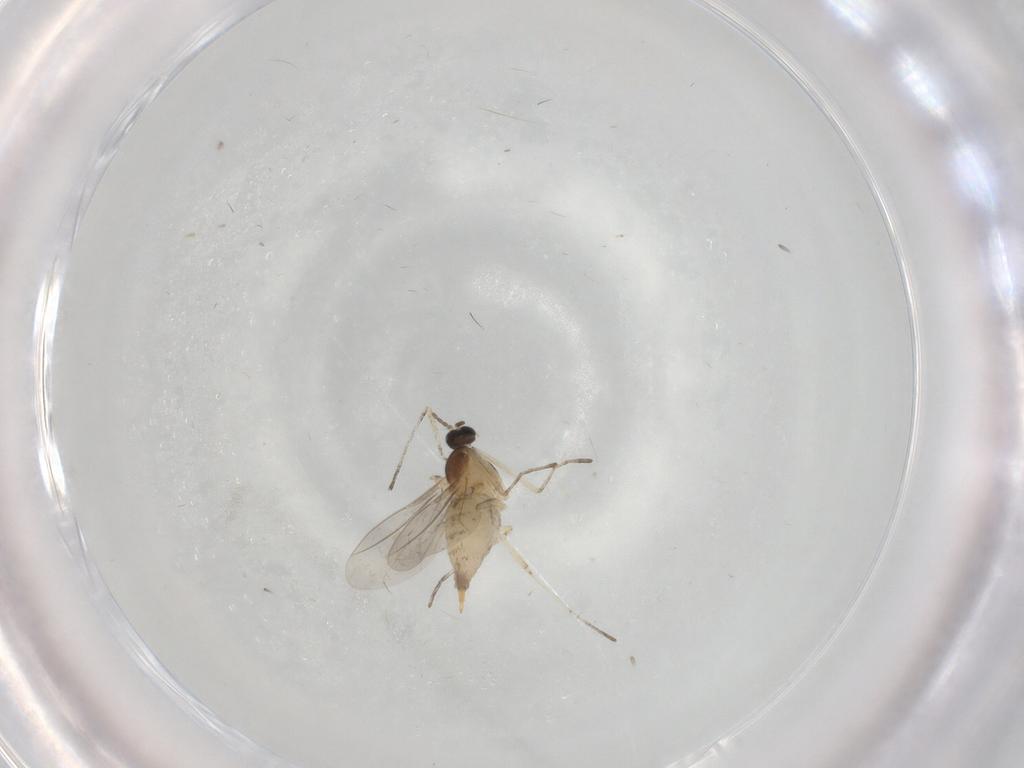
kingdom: Animalia
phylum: Arthropoda
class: Insecta
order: Diptera
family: Cecidomyiidae
